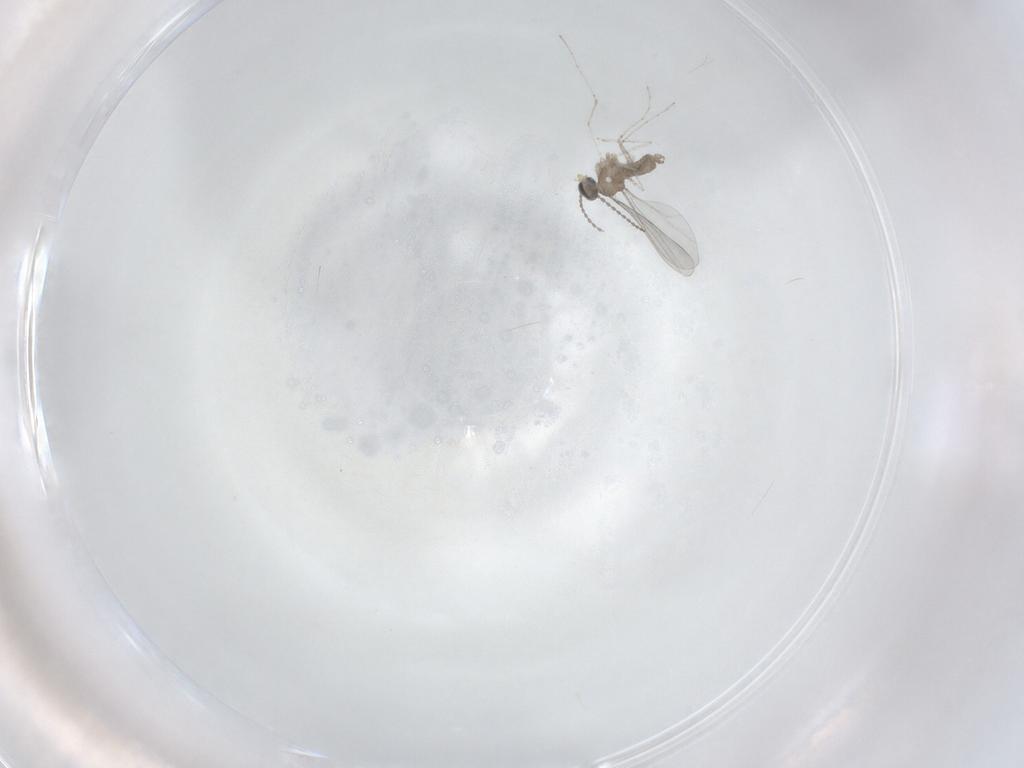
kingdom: Animalia
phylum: Arthropoda
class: Insecta
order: Diptera
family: Cecidomyiidae
